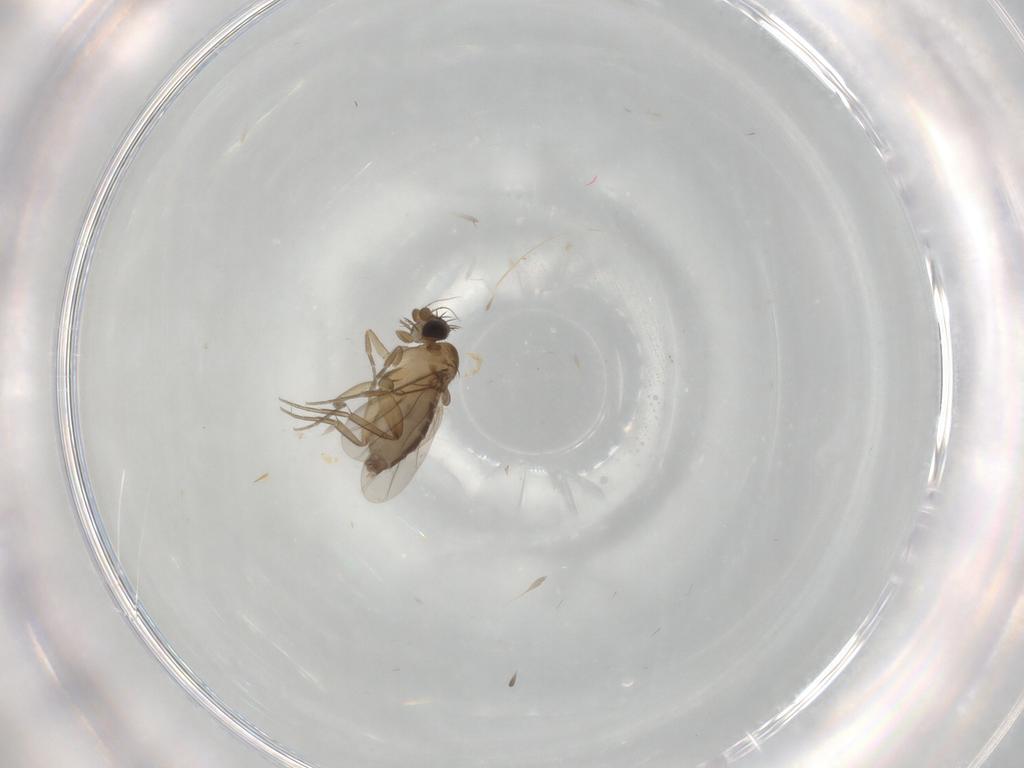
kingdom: Animalia
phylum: Arthropoda
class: Insecta
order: Diptera
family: Phoridae
